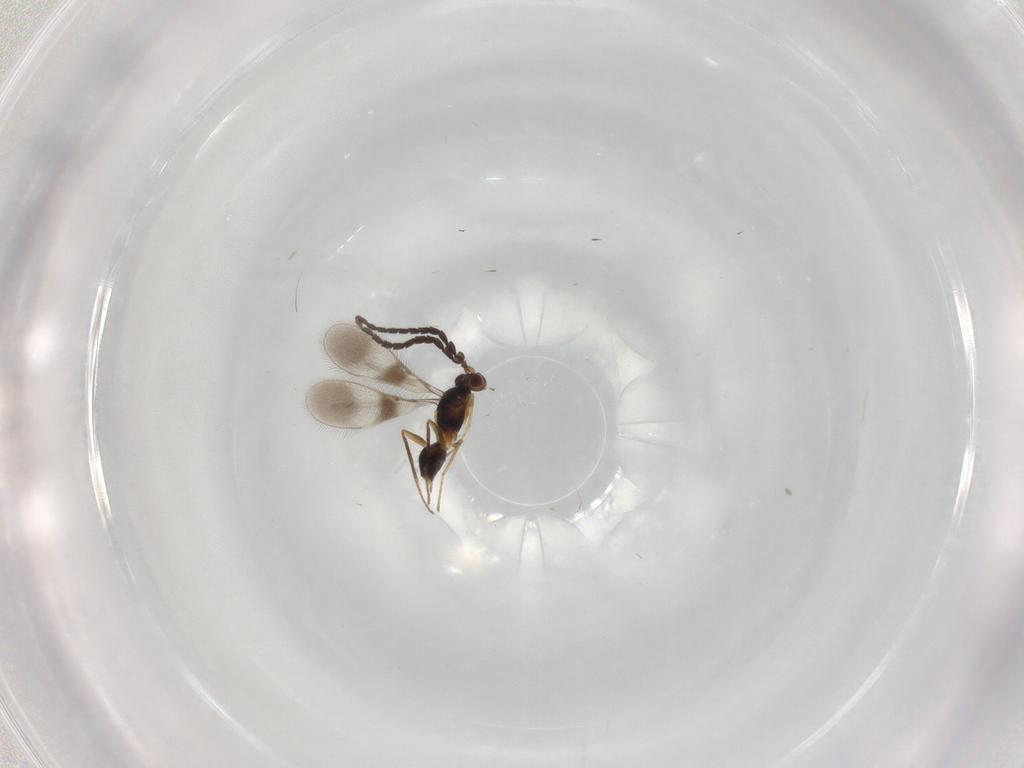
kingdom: Animalia
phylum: Arthropoda
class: Insecta
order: Hymenoptera
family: Mymaridae
